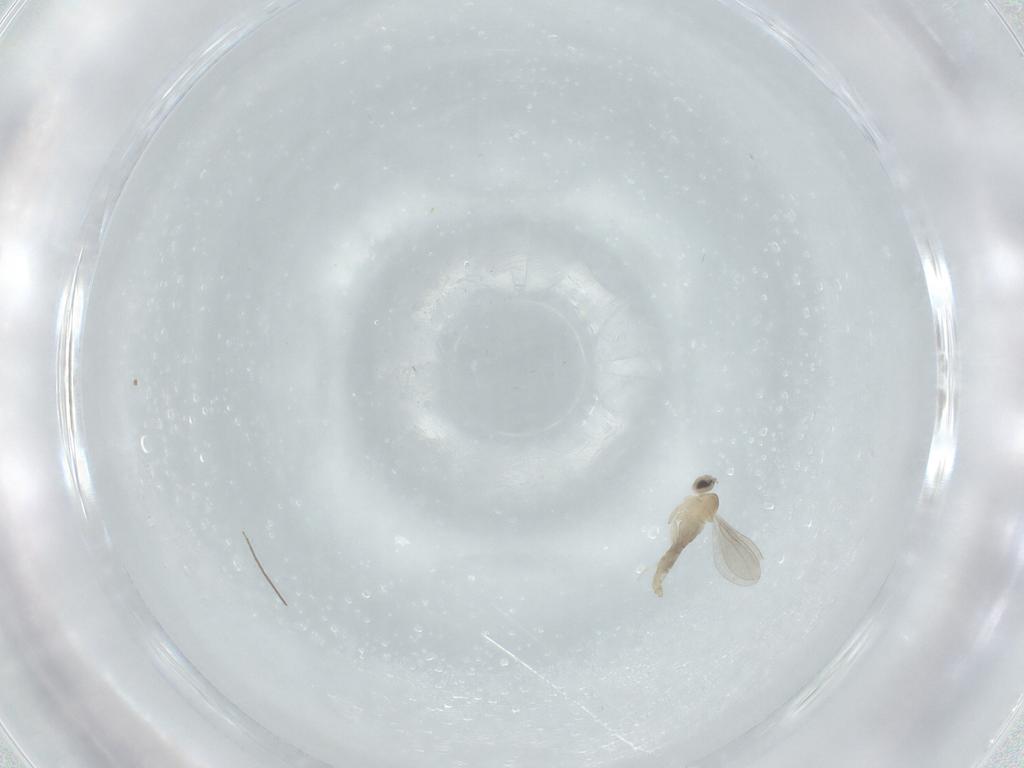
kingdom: Animalia
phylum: Arthropoda
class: Insecta
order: Diptera
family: Cecidomyiidae
